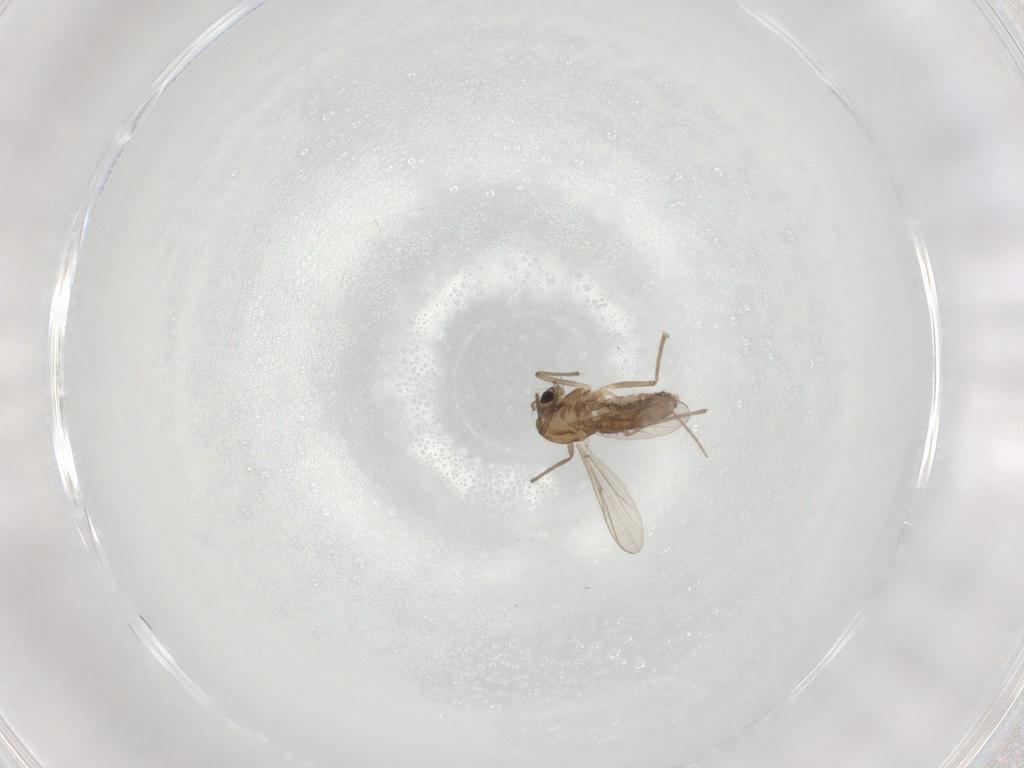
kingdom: Animalia
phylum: Arthropoda
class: Insecta
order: Diptera
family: Chironomidae
